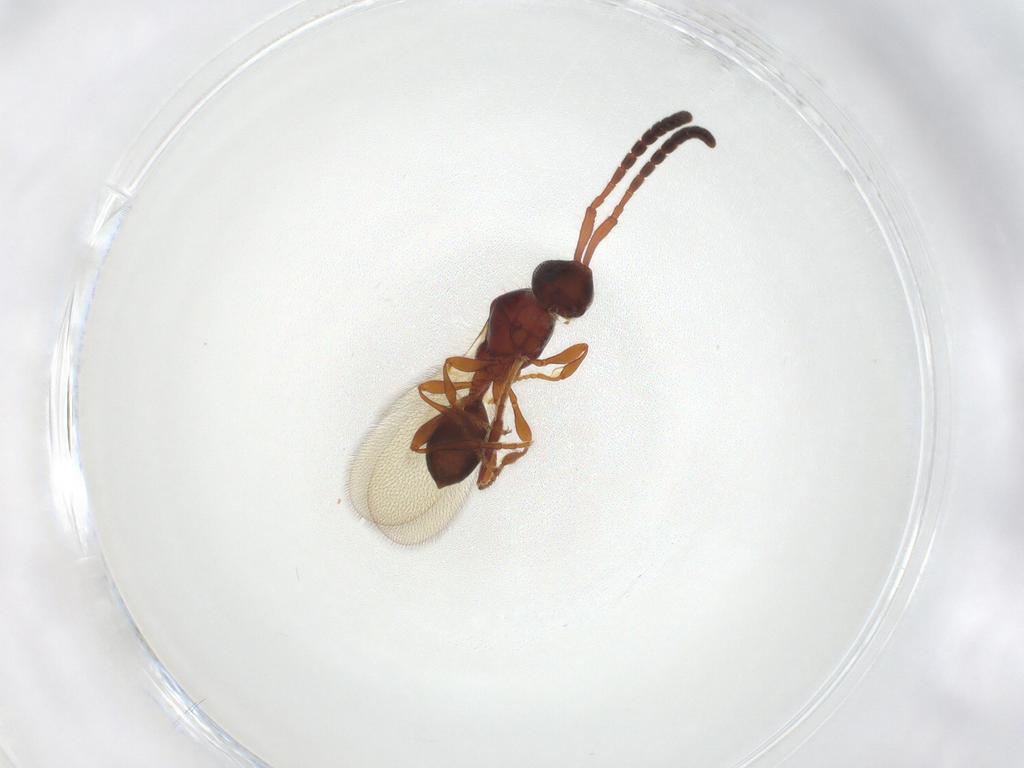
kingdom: Animalia
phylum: Arthropoda
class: Insecta
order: Hymenoptera
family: Diapriidae
